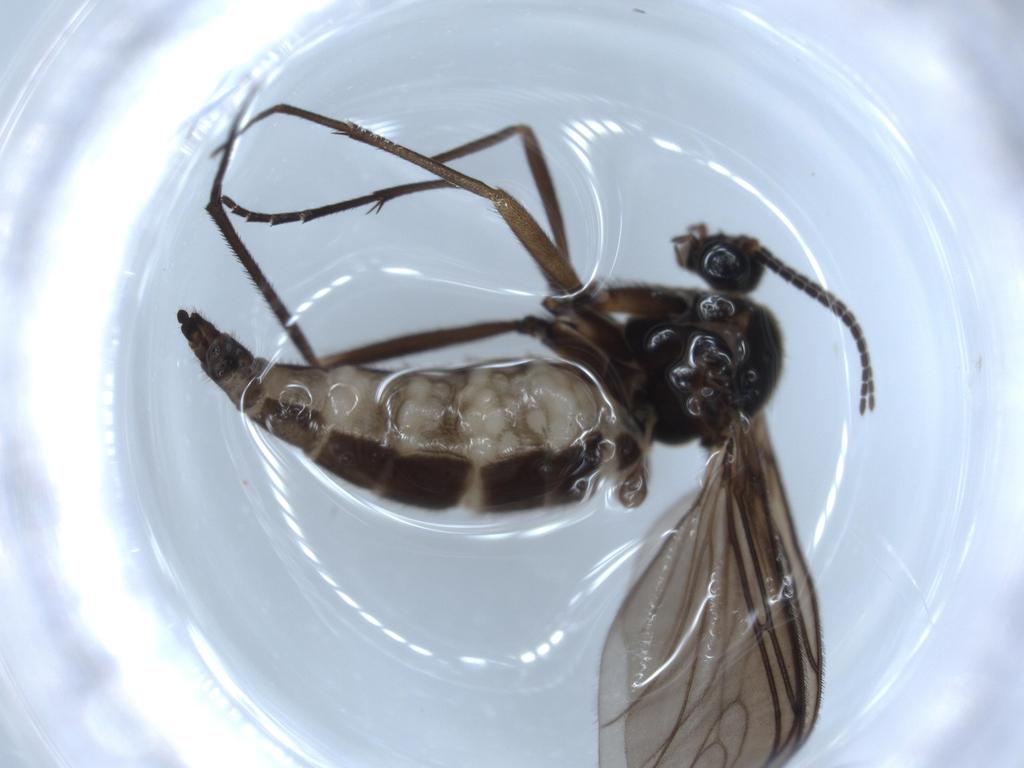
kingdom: Animalia
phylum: Arthropoda
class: Insecta
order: Diptera
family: Sciaridae
